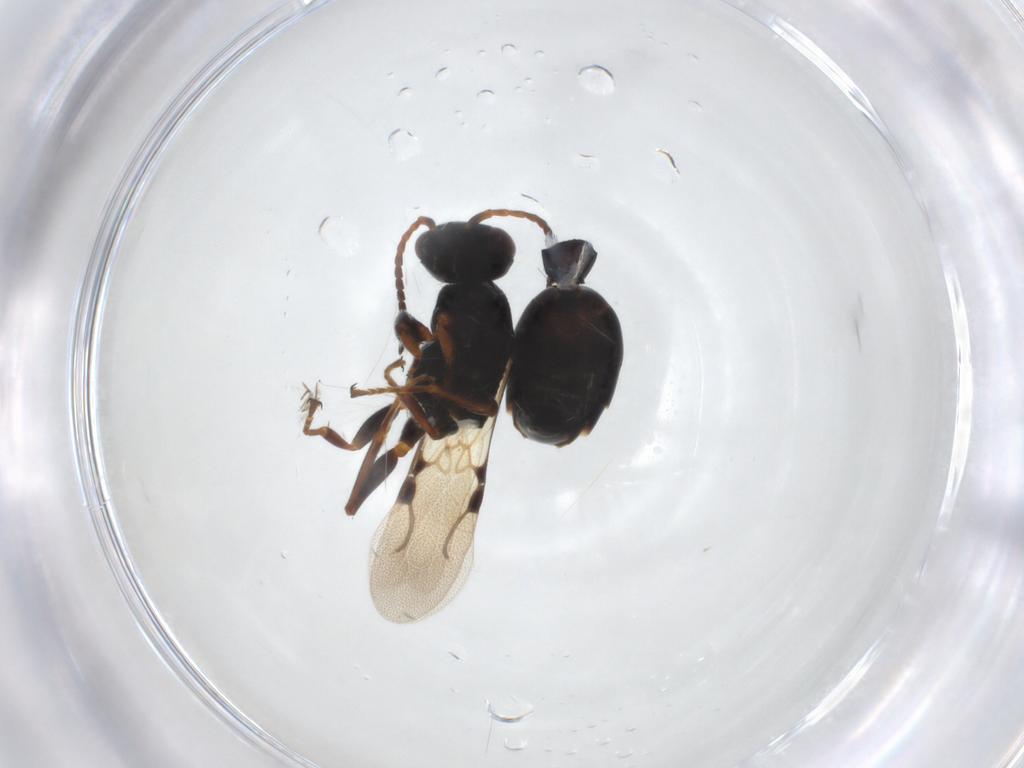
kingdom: Animalia
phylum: Arthropoda
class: Insecta
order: Hymenoptera
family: Bethylidae
